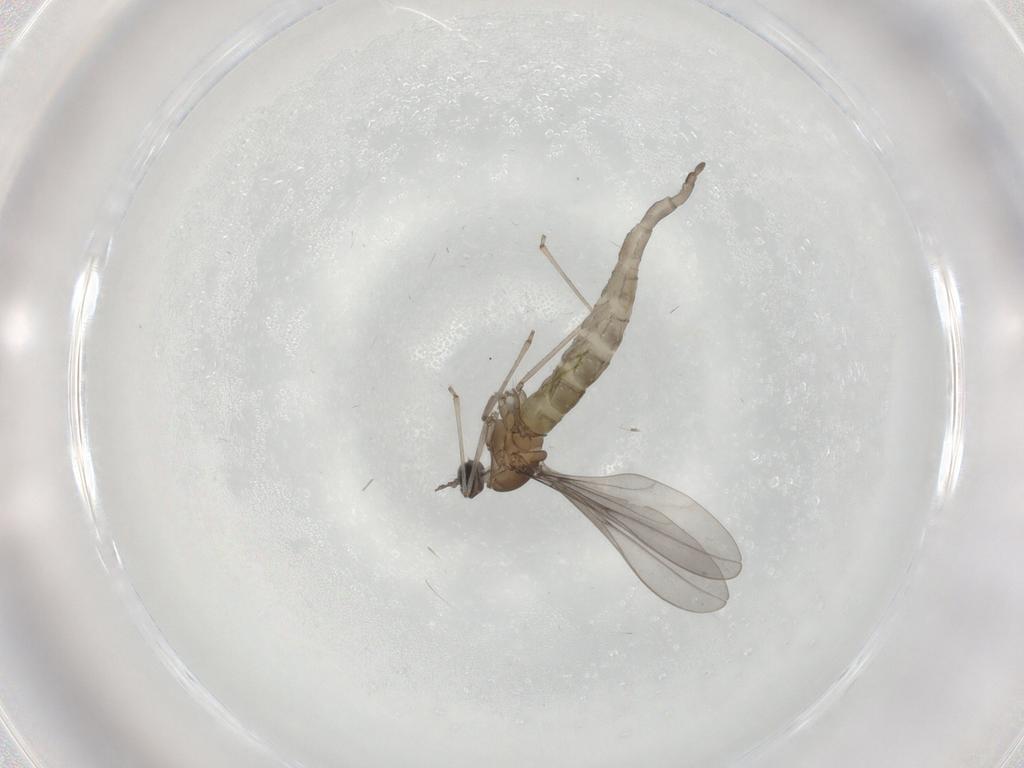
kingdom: Animalia
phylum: Arthropoda
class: Insecta
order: Diptera
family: Cecidomyiidae
